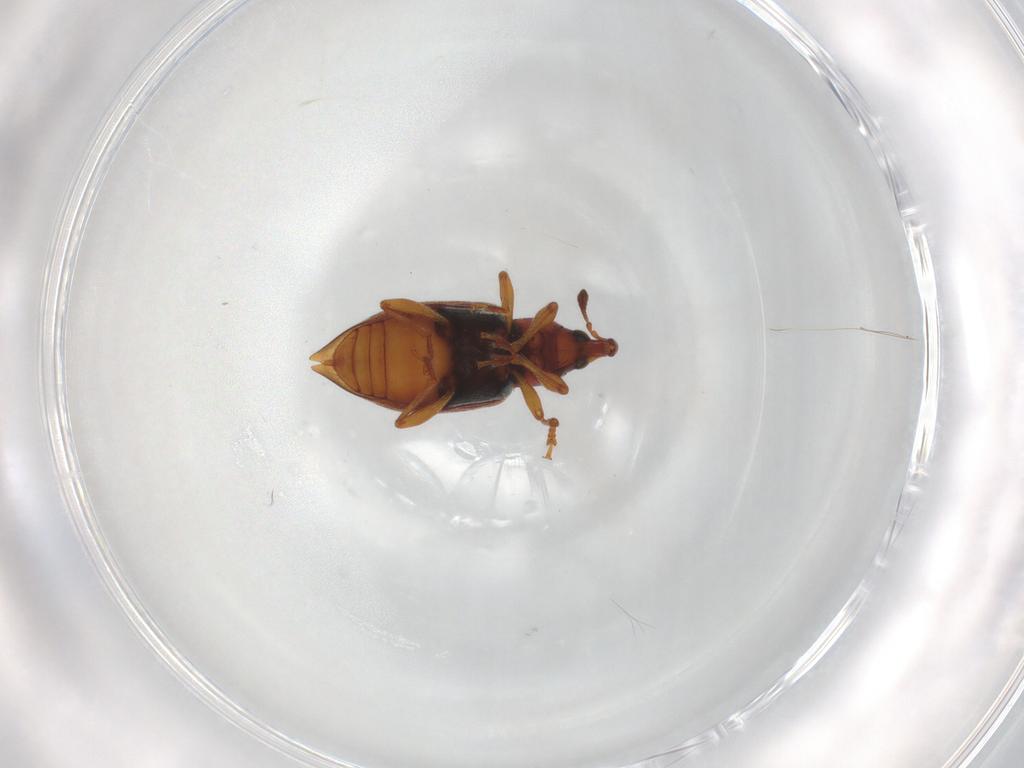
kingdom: Animalia
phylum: Arthropoda
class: Insecta
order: Coleoptera
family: Curculionidae
